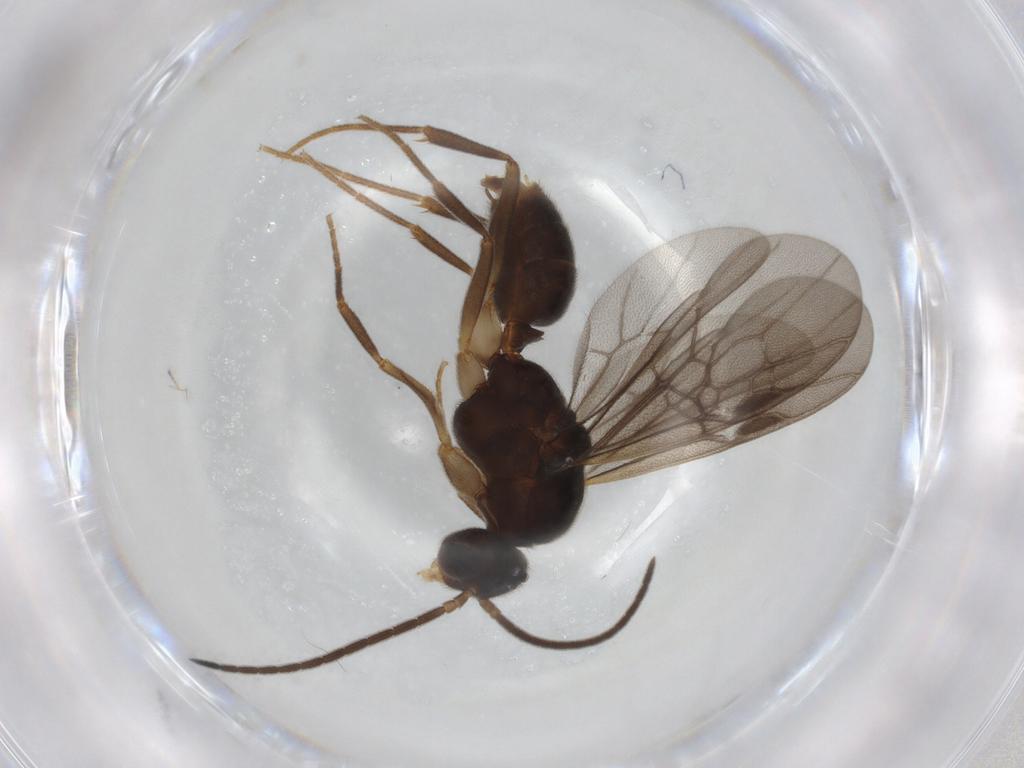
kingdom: Animalia
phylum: Arthropoda
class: Insecta
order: Hymenoptera
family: Formicidae
